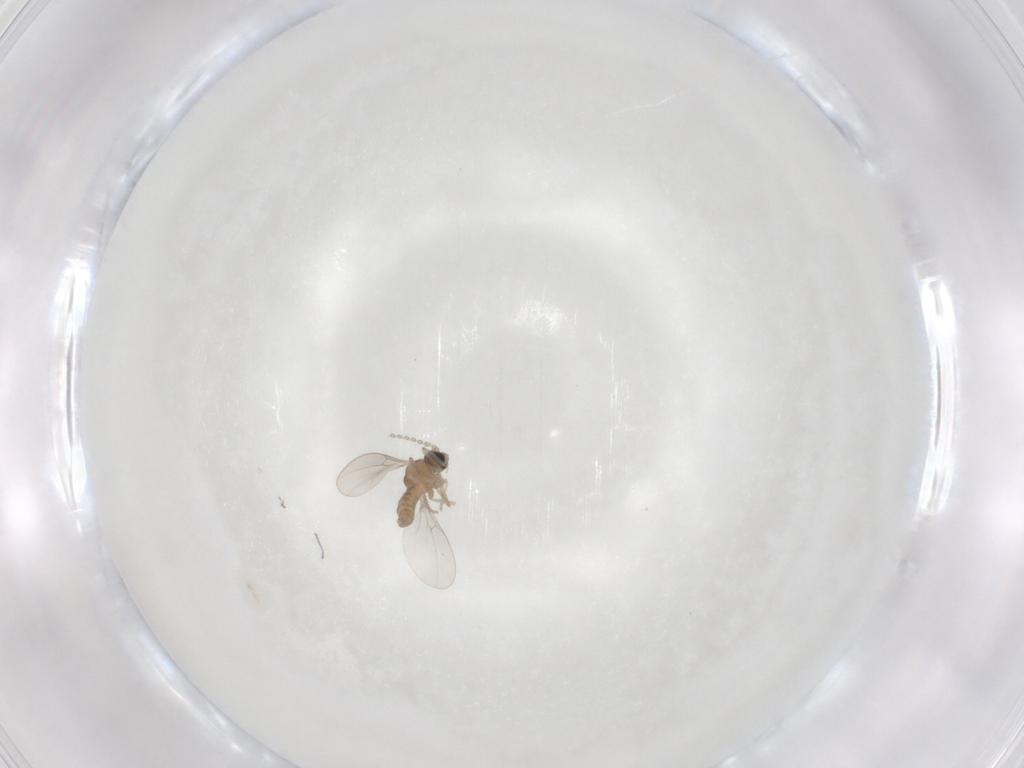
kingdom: Animalia
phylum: Arthropoda
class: Insecta
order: Diptera
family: Cecidomyiidae
